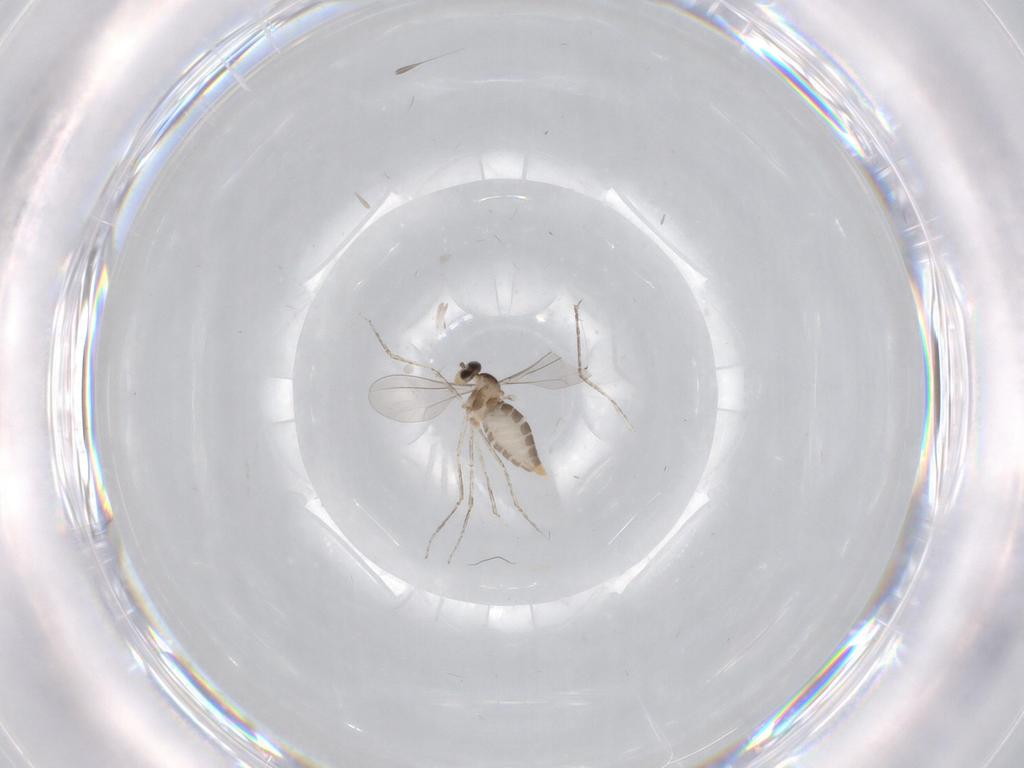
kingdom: Animalia
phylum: Arthropoda
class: Insecta
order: Diptera
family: Cecidomyiidae
